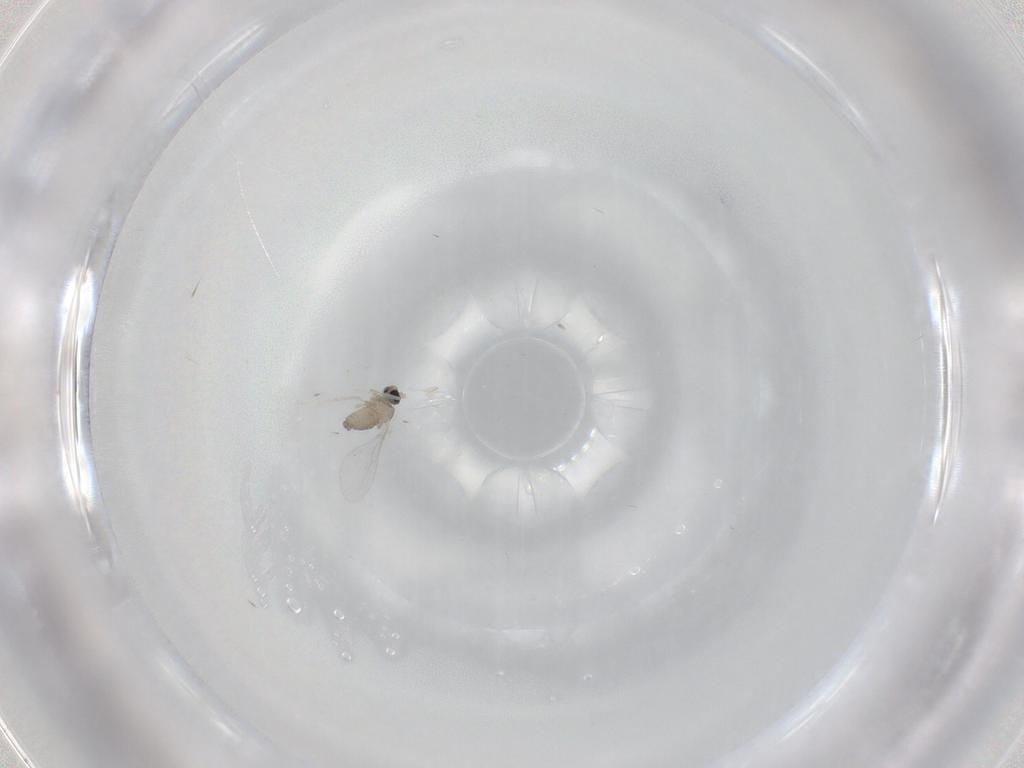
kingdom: Animalia
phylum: Arthropoda
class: Insecta
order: Diptera
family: Cecidomyiidae
